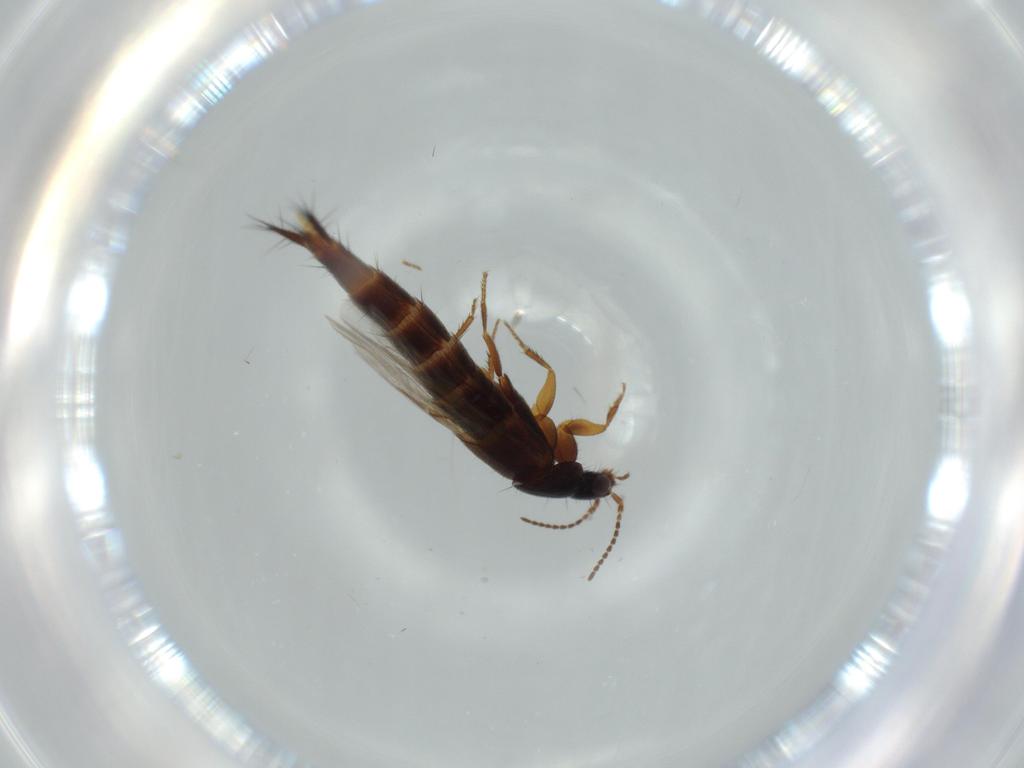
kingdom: Animalia
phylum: Arthropoda
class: Insecta
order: Coleoptera
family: Curculionidae
